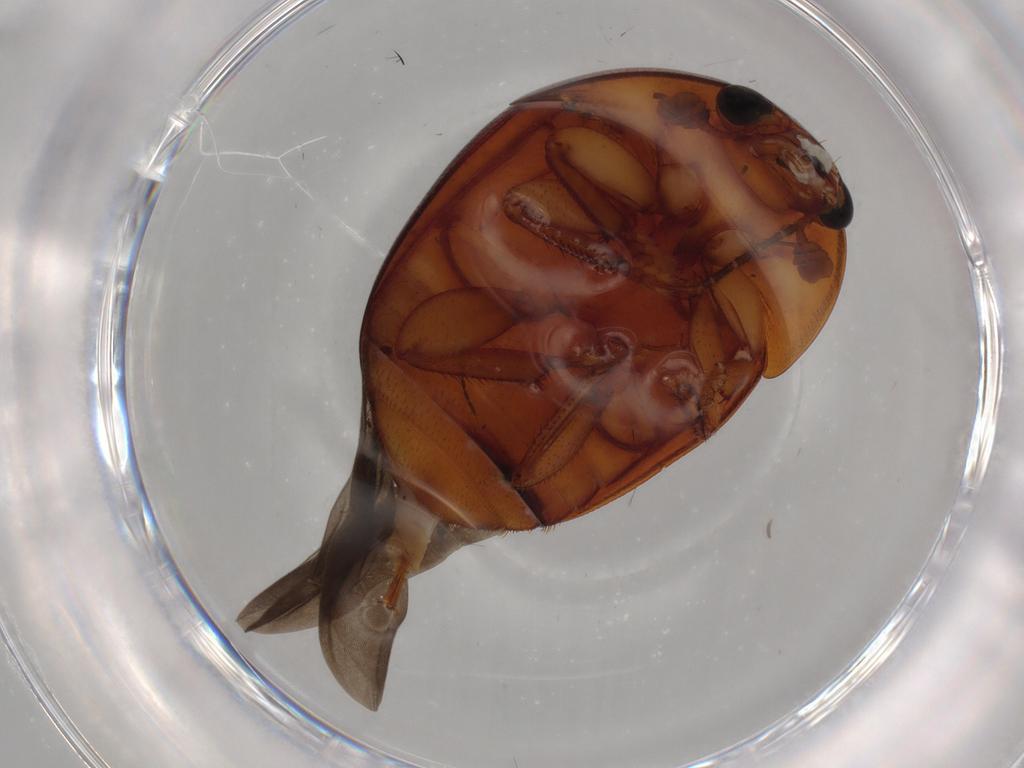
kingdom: Animalia
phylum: Arthropoda
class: Insecta
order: Coleoptera
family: Nitidulidae
